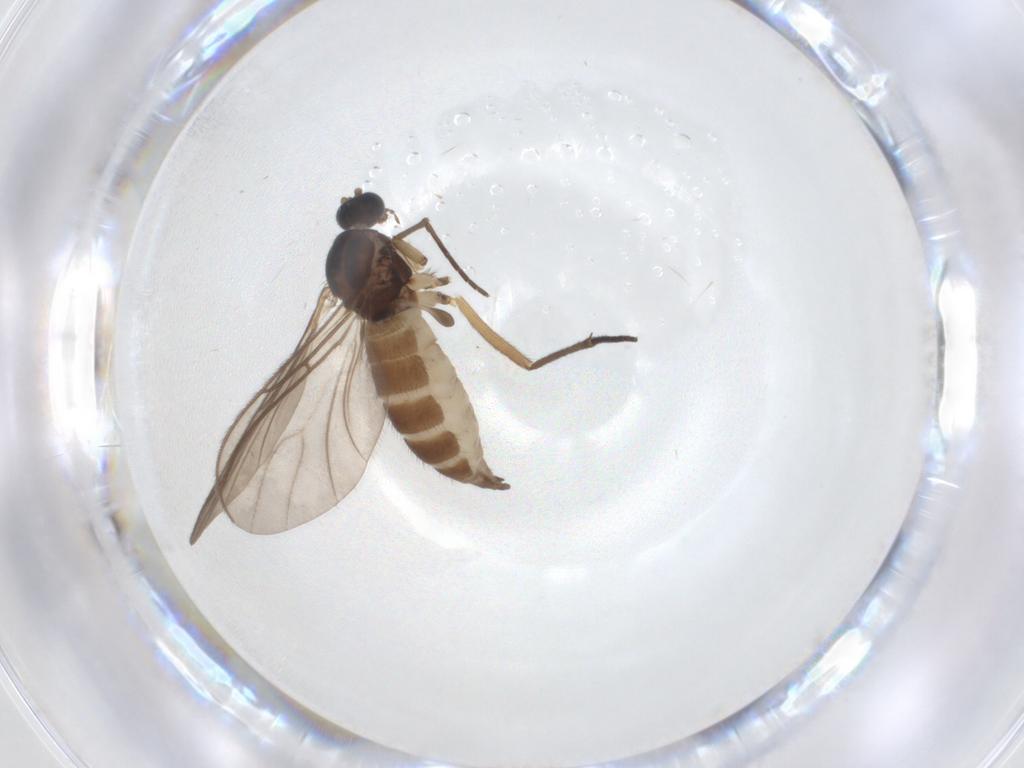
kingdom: Animalia
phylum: Arthropoda
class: Insecta
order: Diptera
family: Sciaridae
